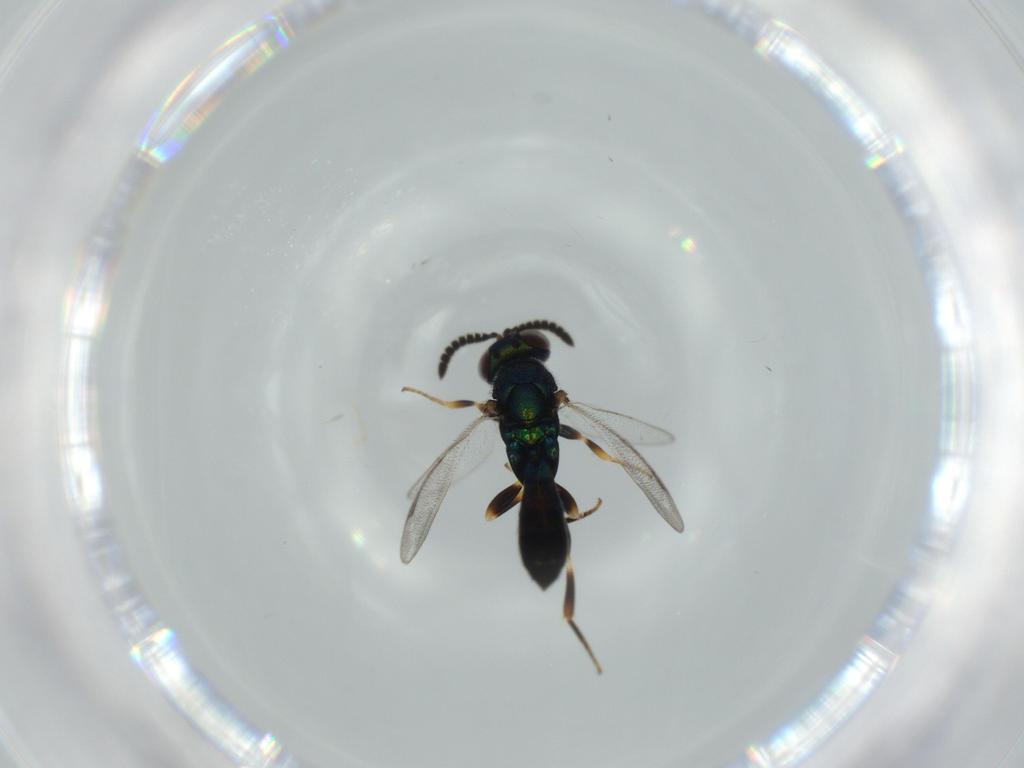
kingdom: Animalia
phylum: Arthropoda
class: Insecta
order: Hymenoptera
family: Cleonyminae
